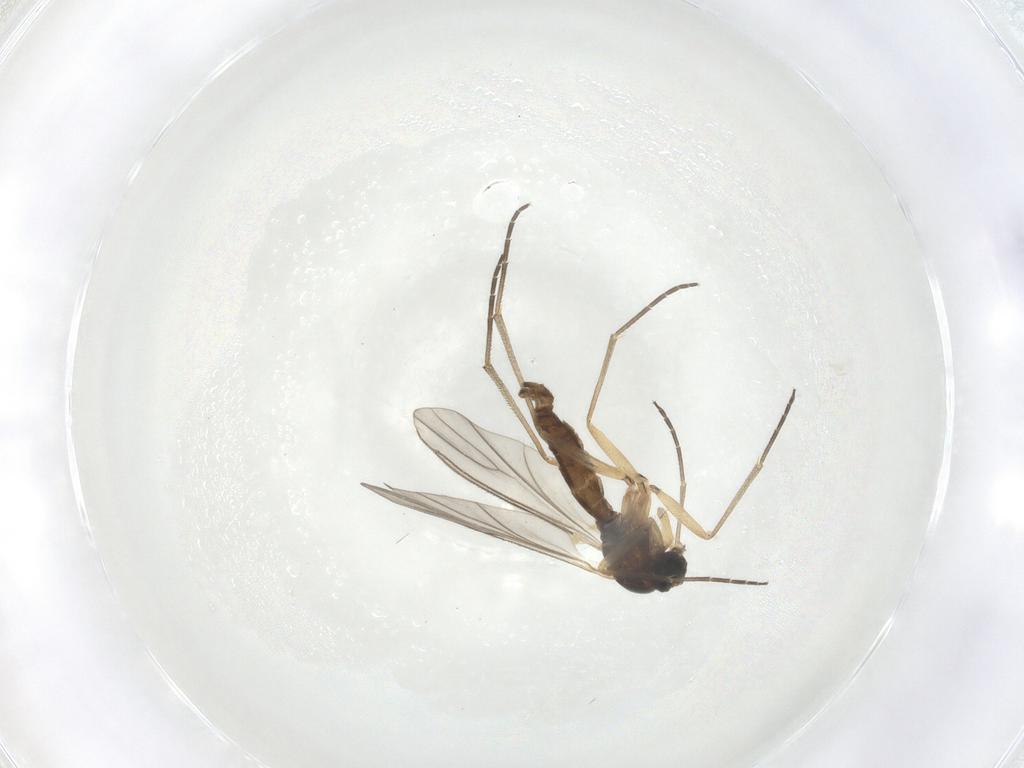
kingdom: Animalia
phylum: Arthropoda
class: Insecta
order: Diptera
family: Sciaridae
